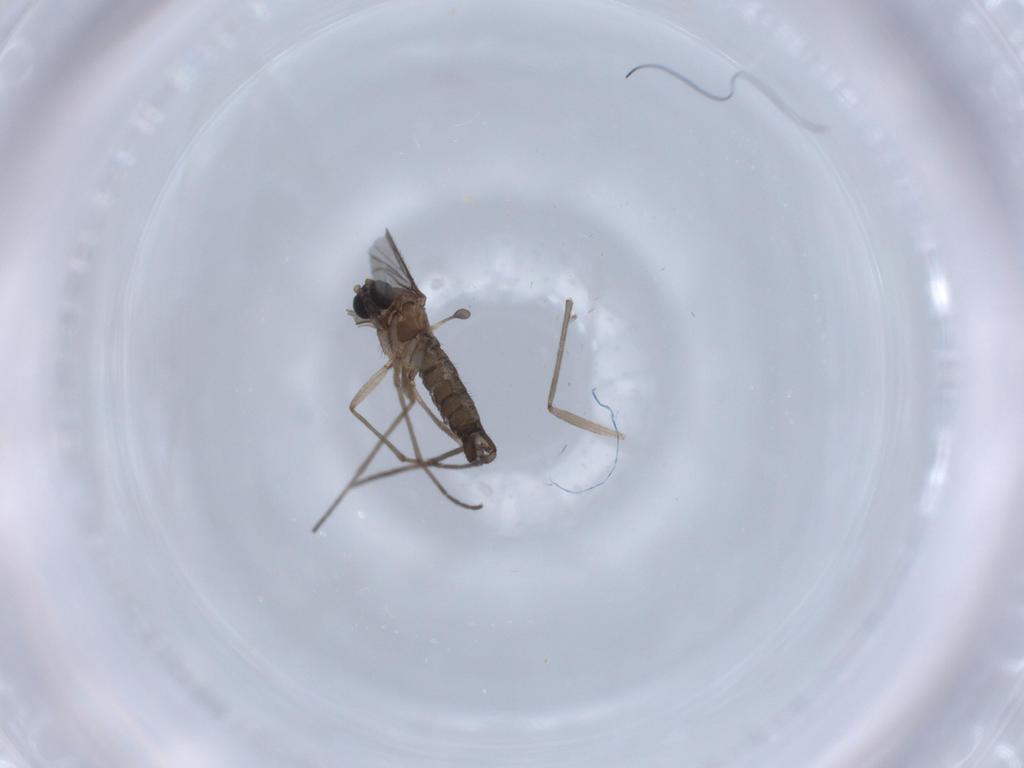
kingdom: Animalia
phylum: Arthropoda
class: Insecta
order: Diptera
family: Sciaridae
